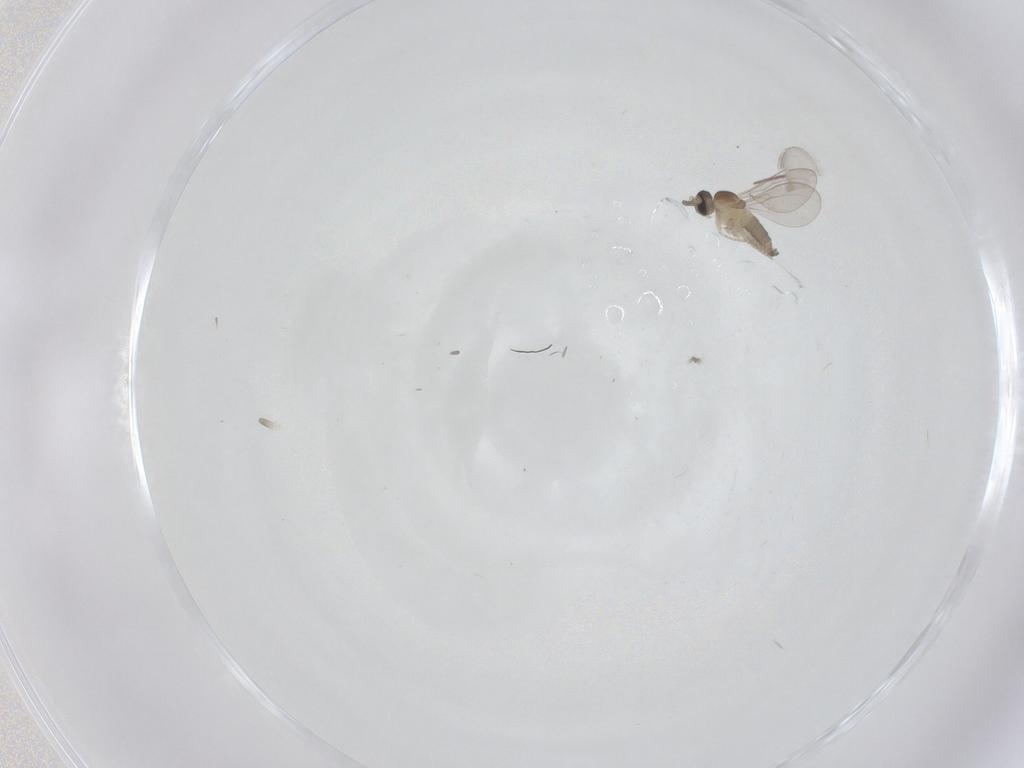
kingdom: Animalia
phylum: Arthropoda
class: Insecta
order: Diptera
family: Cecidomyiidae
